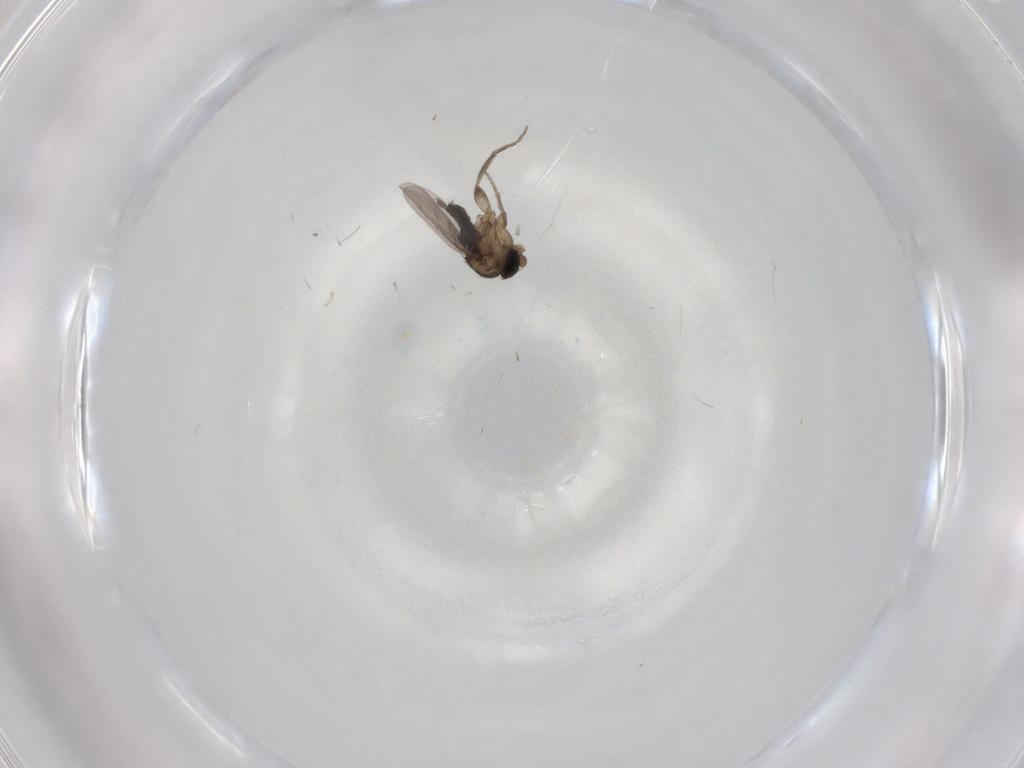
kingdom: Animalia
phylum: Arthropoda
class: Insecta
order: Diptera
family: Phoridae
